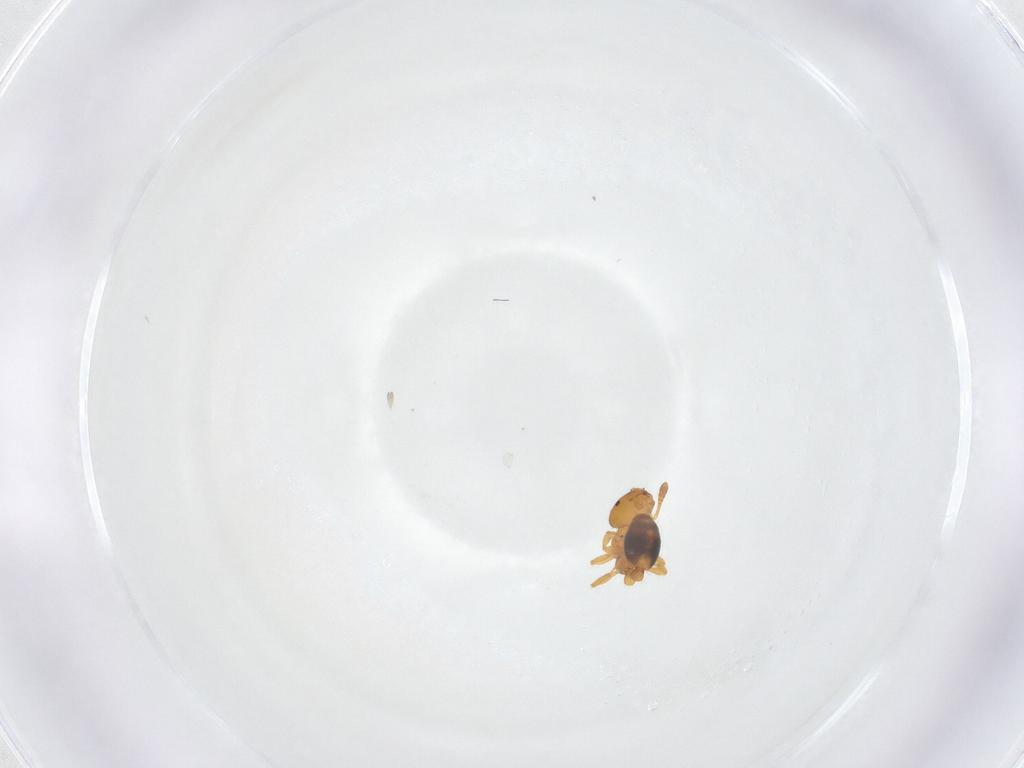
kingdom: Animalia
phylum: Arthropoda
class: Insecta
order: Hymenoptera
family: Formicidae
